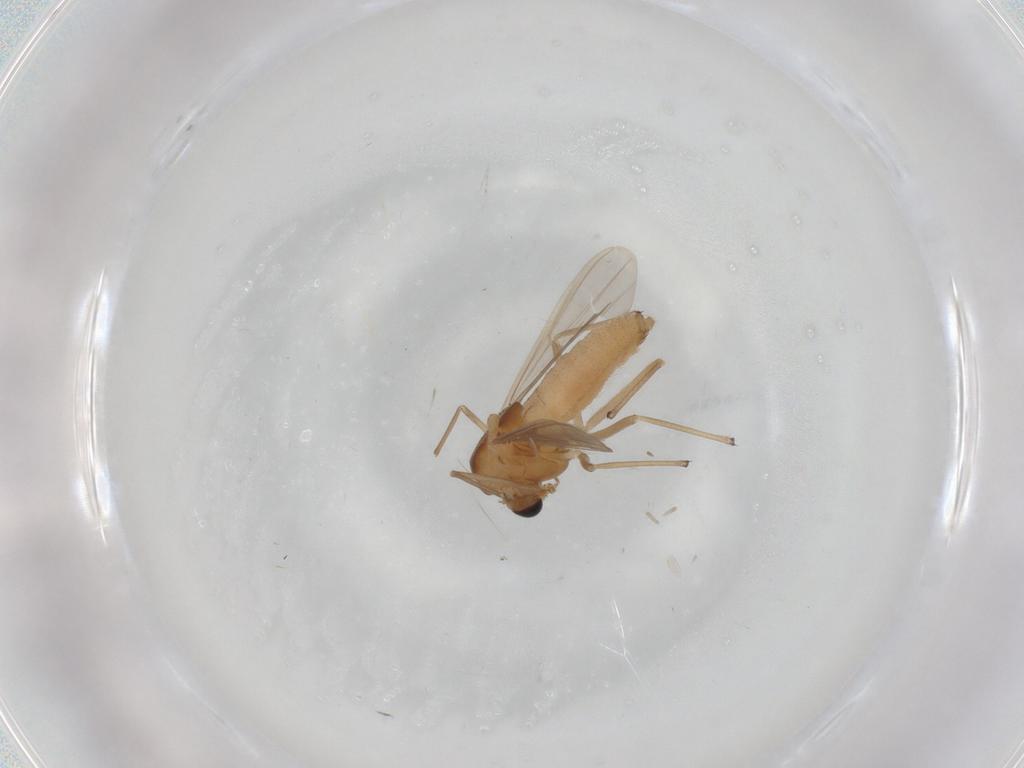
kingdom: Animalia
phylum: Arthropoda
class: Insecta
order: Diptera
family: Chironomidae
